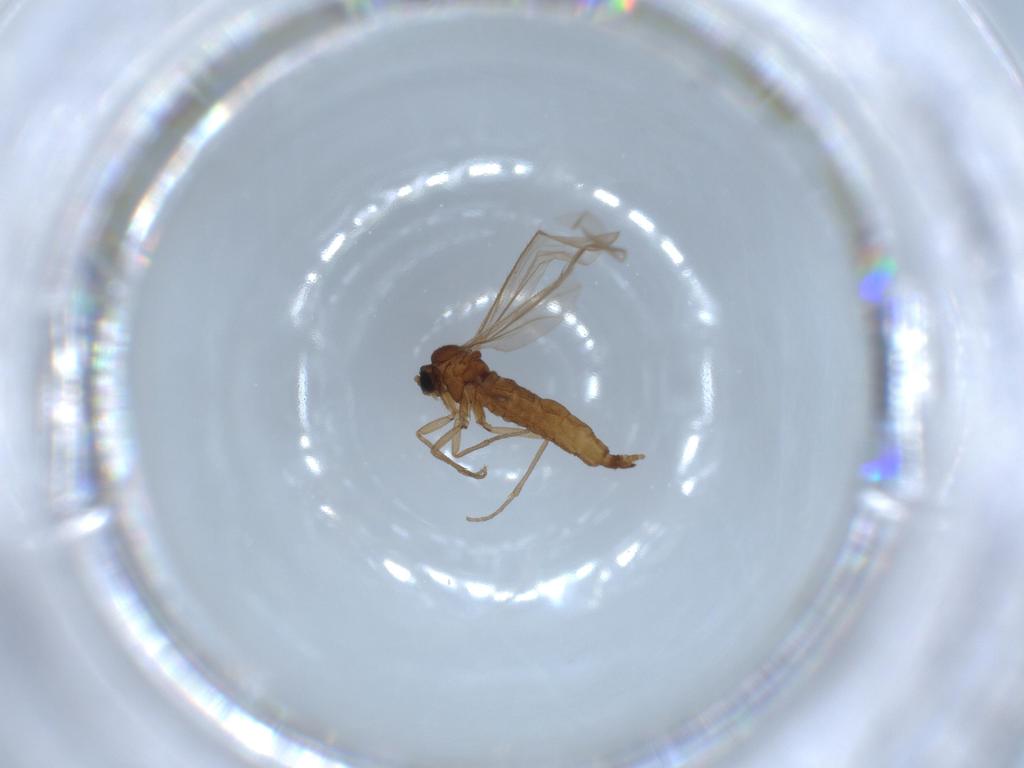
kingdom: Animalia
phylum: Arthropoda
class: Insecta
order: Diptera
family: Sciaridae
